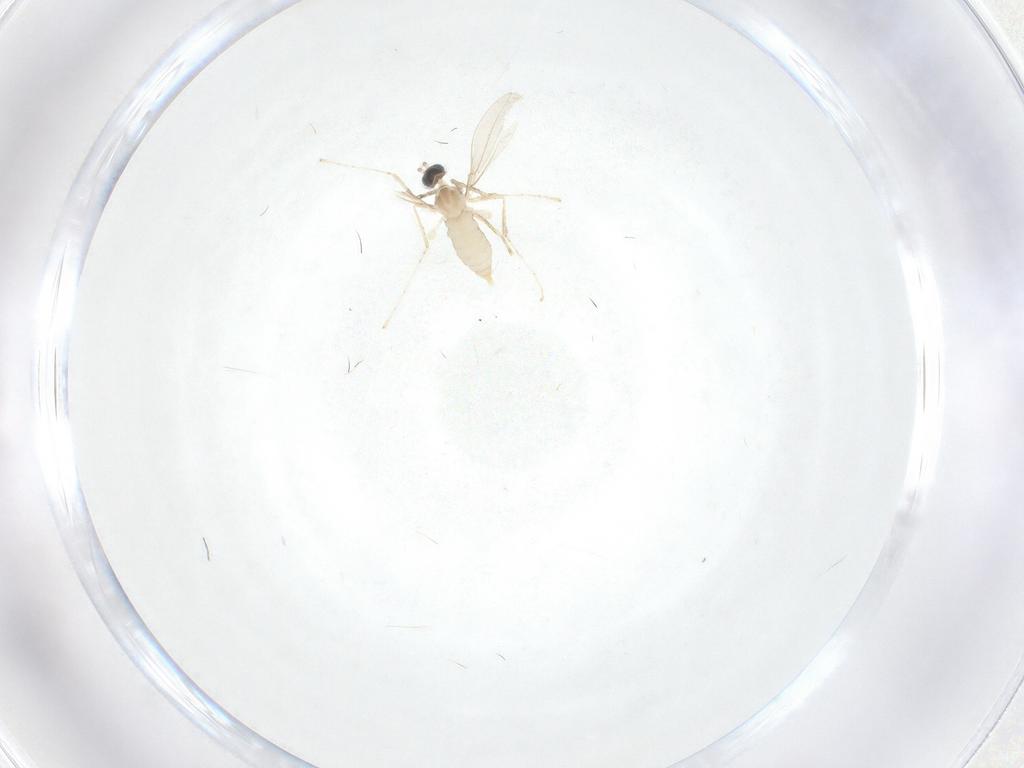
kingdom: Animalia
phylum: Arthropoda
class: Insecta
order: Diptera
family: Cecidomyiidae
